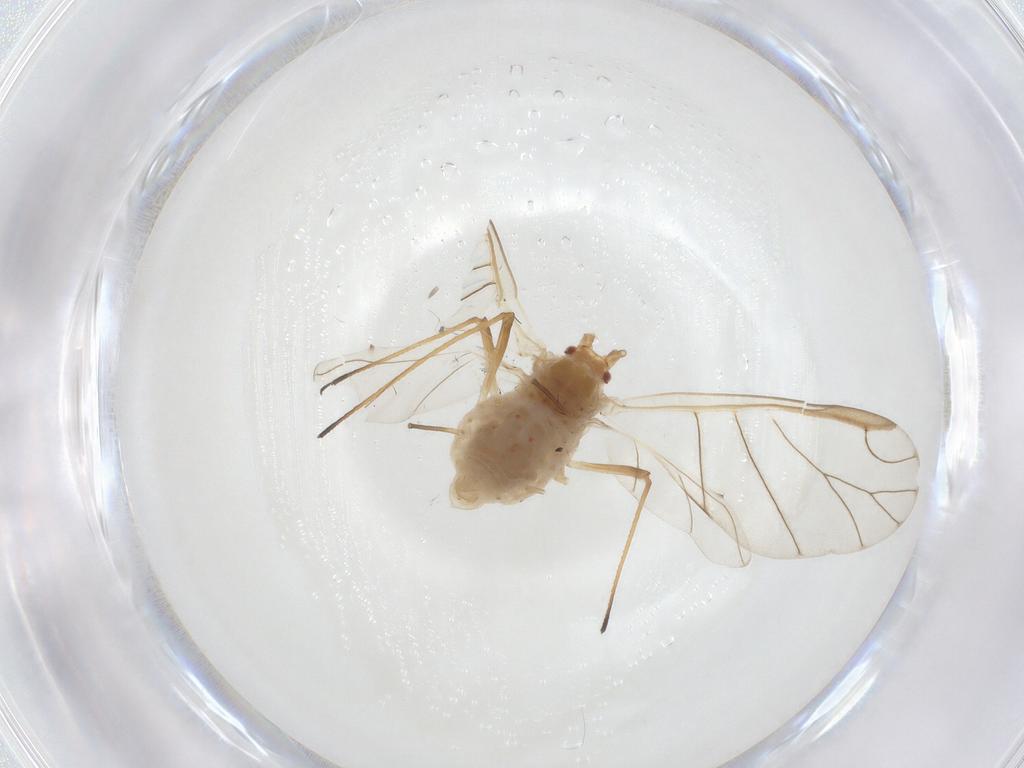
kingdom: Animalia
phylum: Arthropoda
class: Insecta
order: Hemiptera
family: Aphididae
